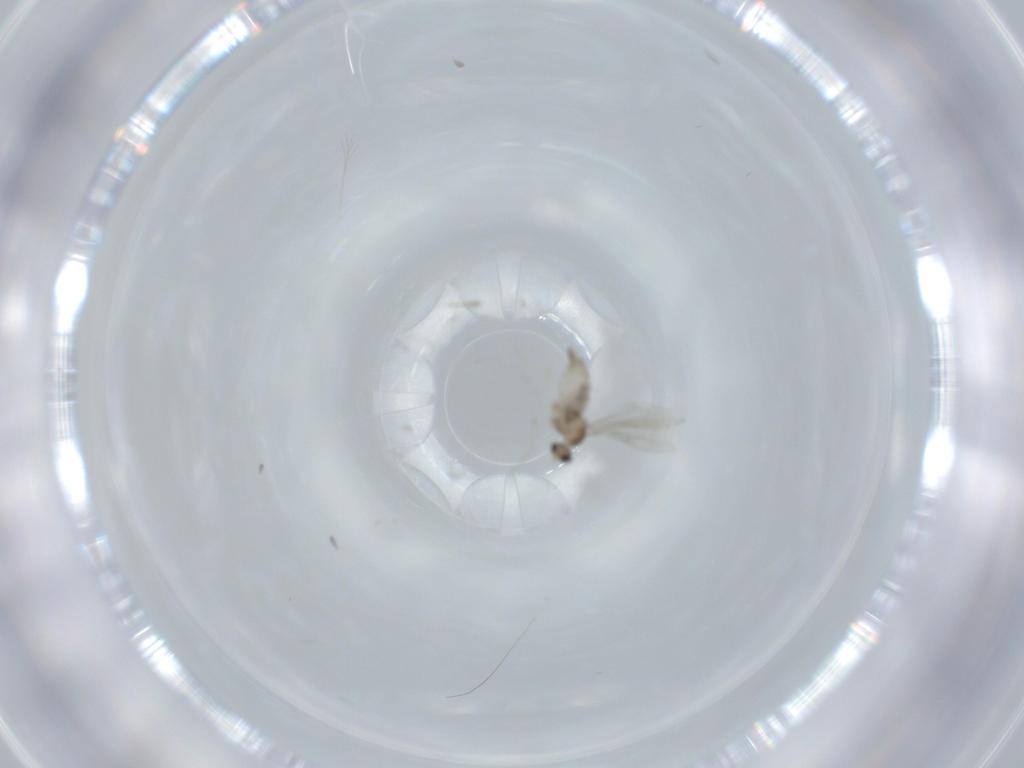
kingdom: Animalia
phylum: Arthropoda
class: Insecta
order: Diptera
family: Cecidomyiidae
